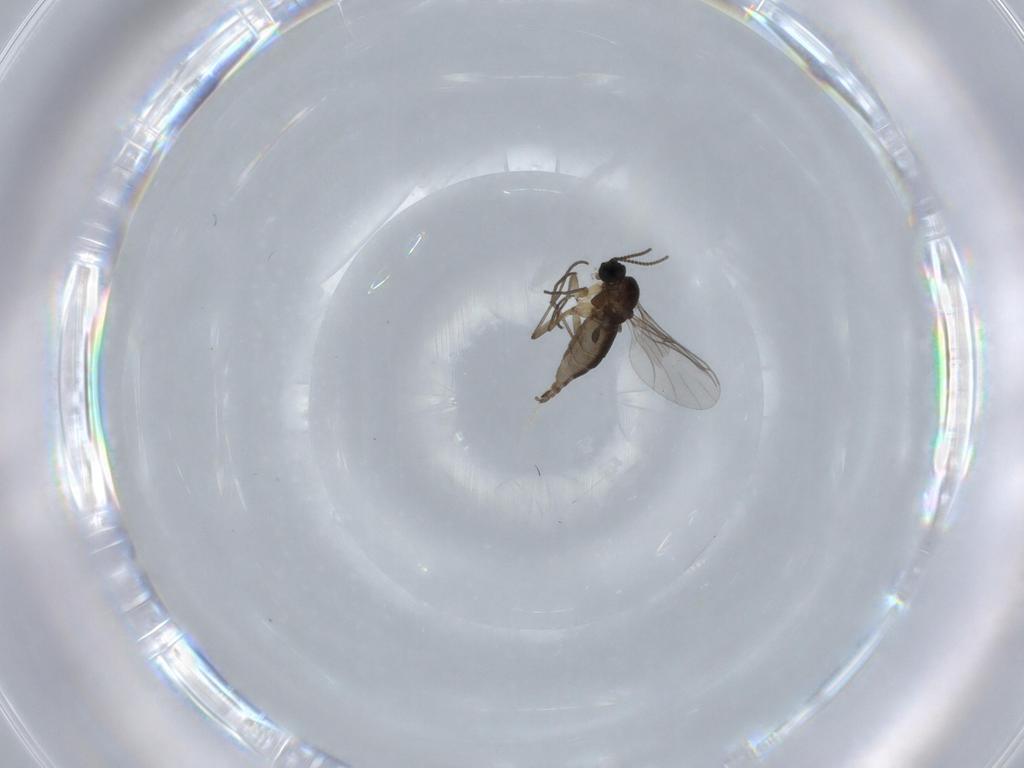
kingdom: Animalia
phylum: Arthropoda
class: Insecta
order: Diptera
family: Sciaridae
